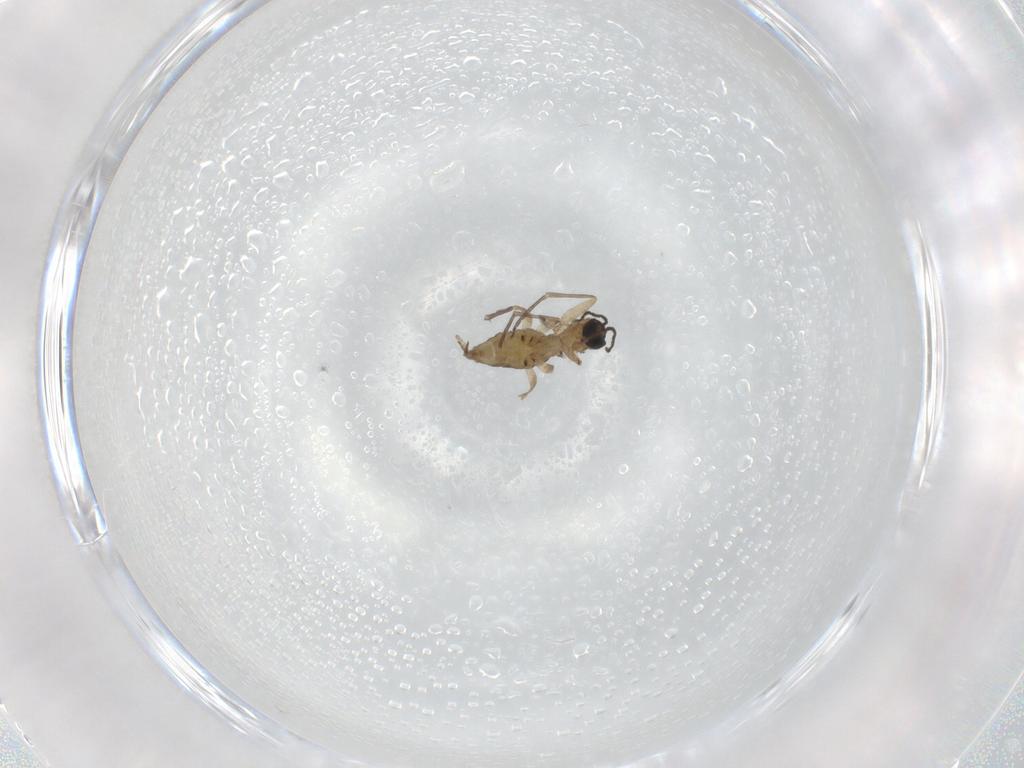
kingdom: Animalia
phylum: Arthropoda
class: Insecta
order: Diptera
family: Sciaridae
